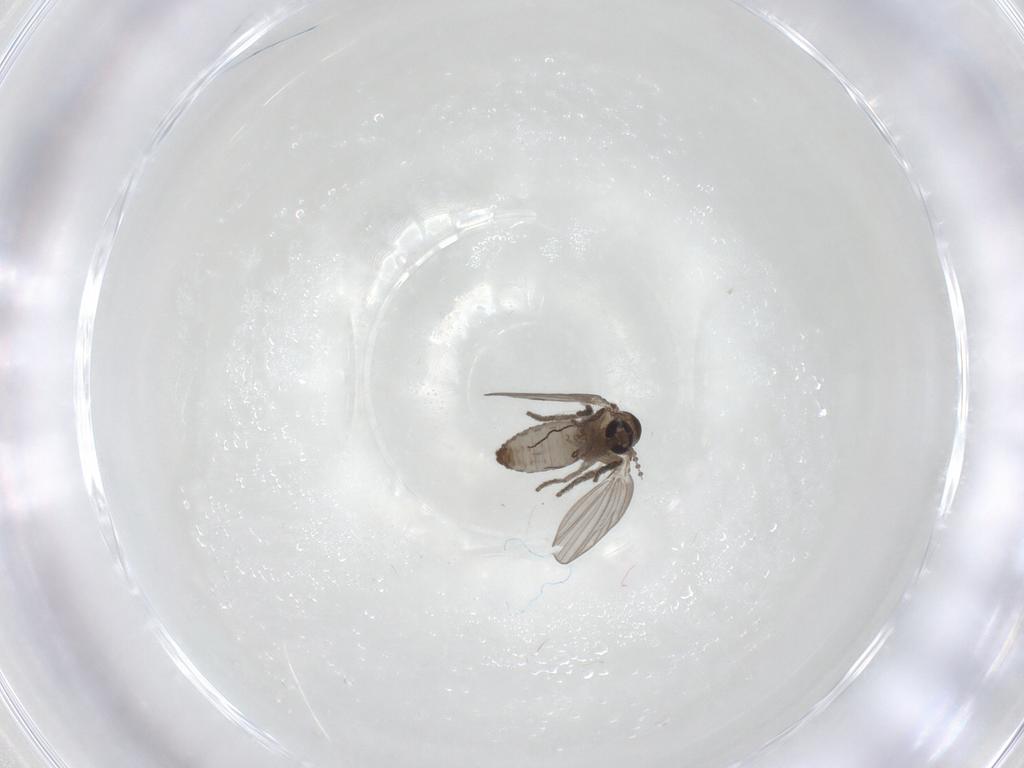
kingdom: Animalia
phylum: Arthropoda
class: Insecta
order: Diptera
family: Psychodidae
